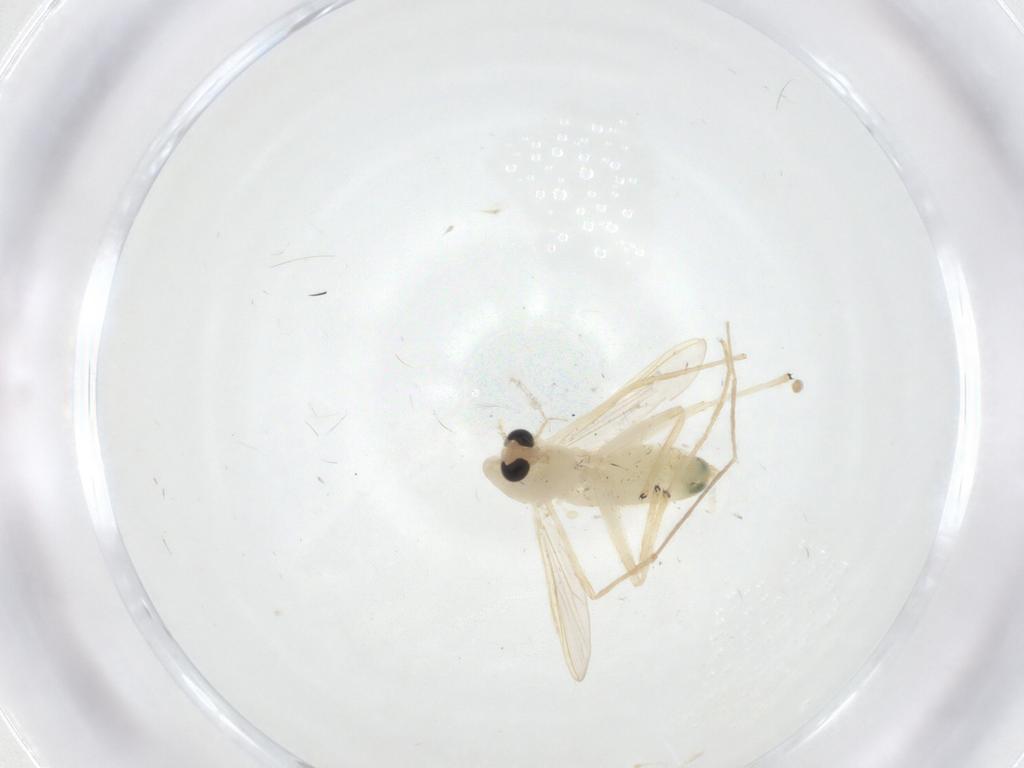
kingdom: Animalia
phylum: Arthropoda
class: Insecta
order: Diptera
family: Chironomidae
